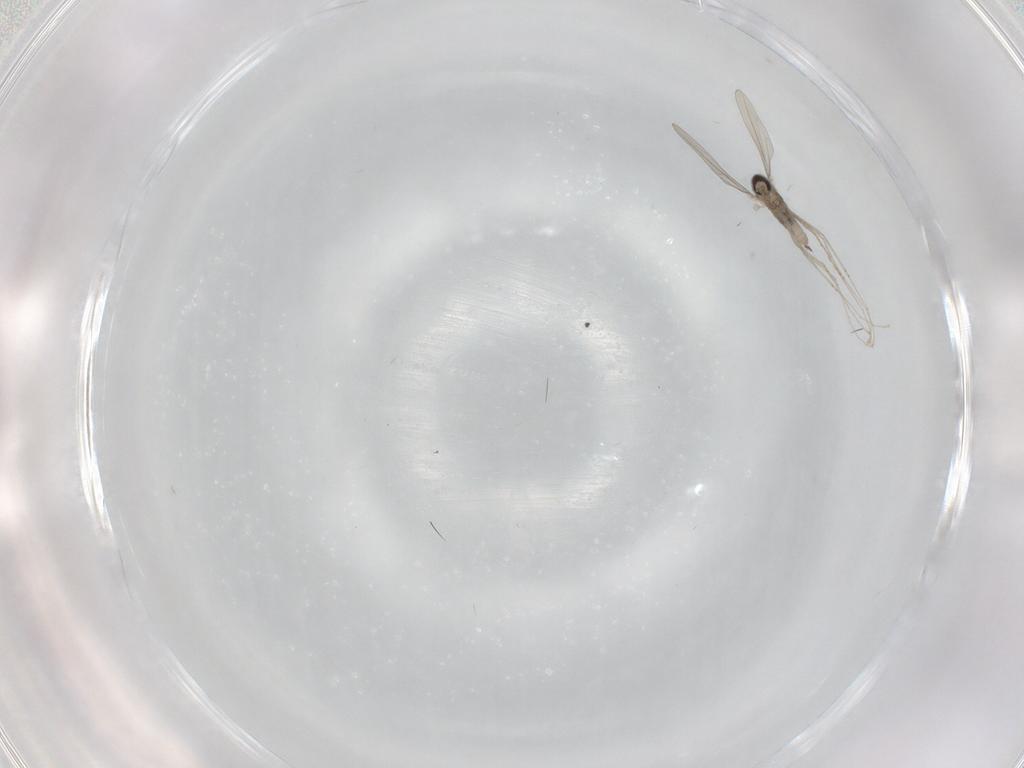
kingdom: Animalia
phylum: Arthropoda
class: Insecta
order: Diptera
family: Cecidomyiidae
